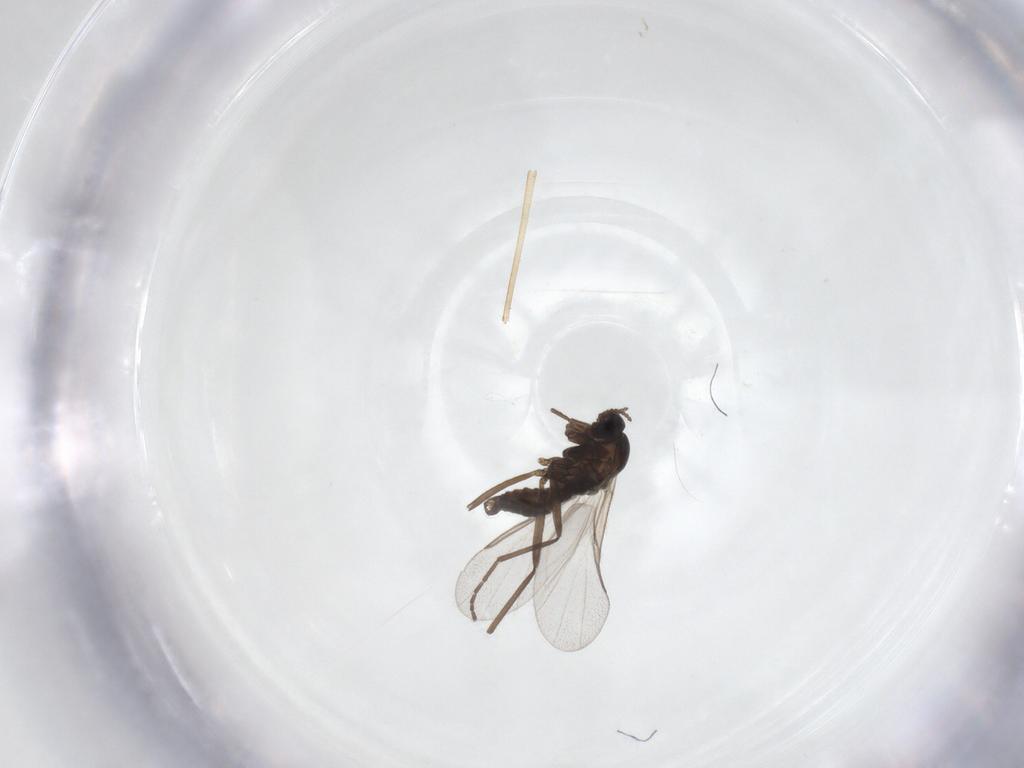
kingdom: Animalia
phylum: Arthropoda
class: Insecta
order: Diptera
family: Cecidomyiidae
